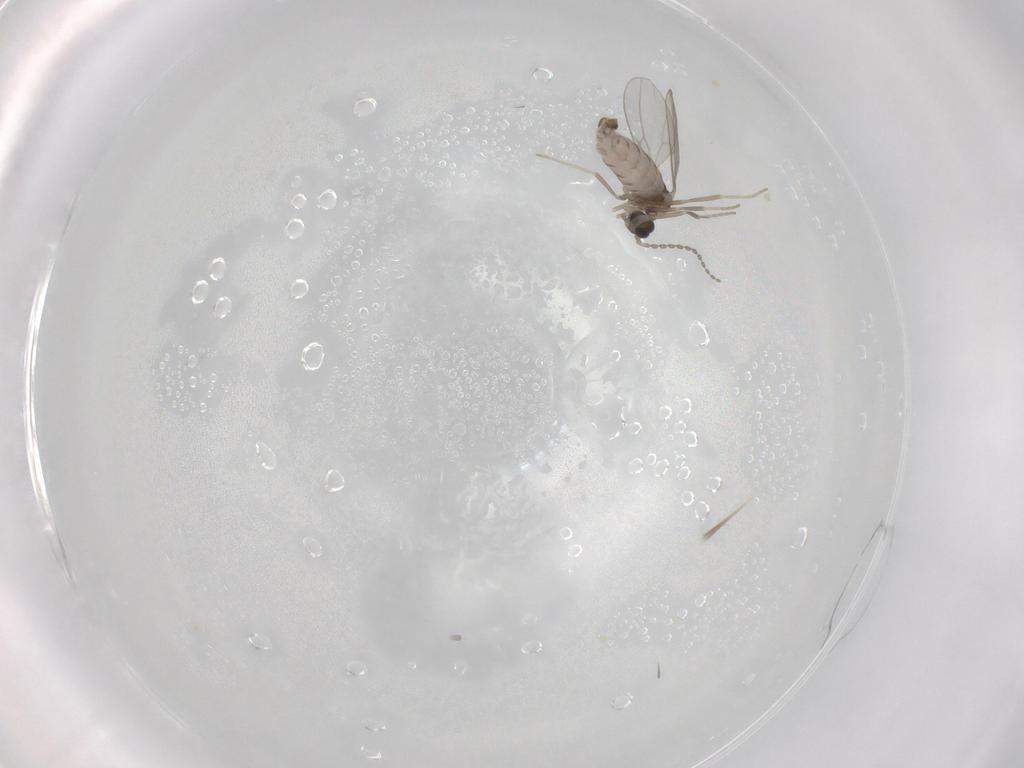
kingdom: Animalia
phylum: Arthropoda
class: Insecta
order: Diptera
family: Cecidomyiidae
